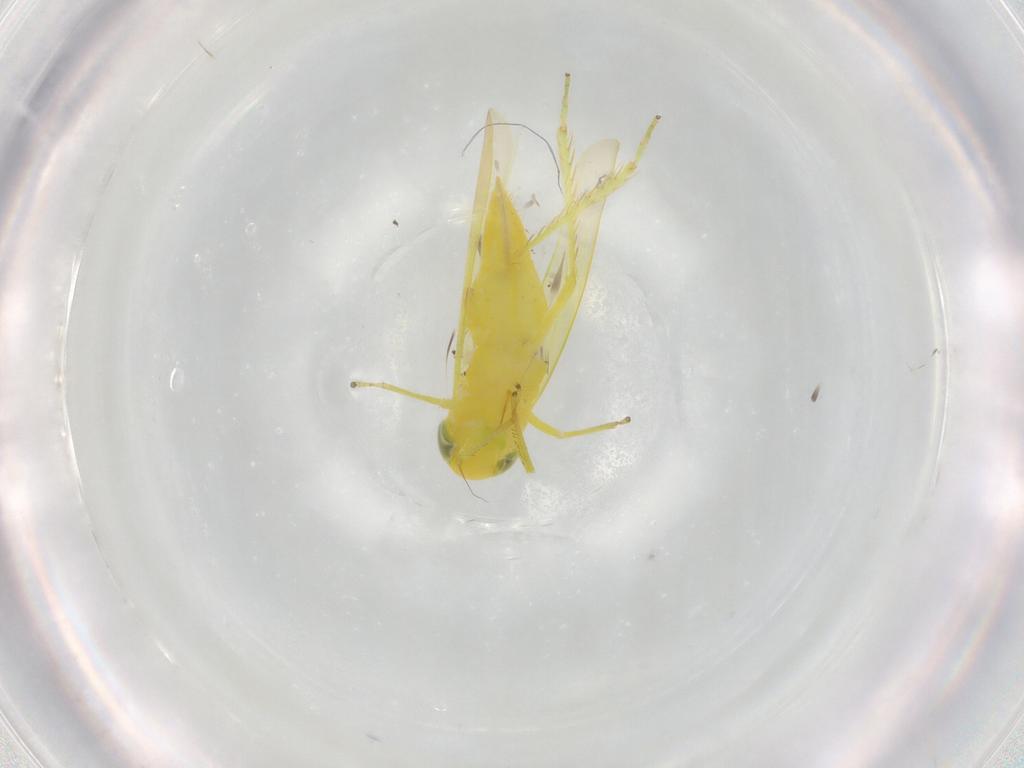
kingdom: Animalia
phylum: Arthropoda
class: Insecta
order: Hemiptera
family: Cicadellidae
